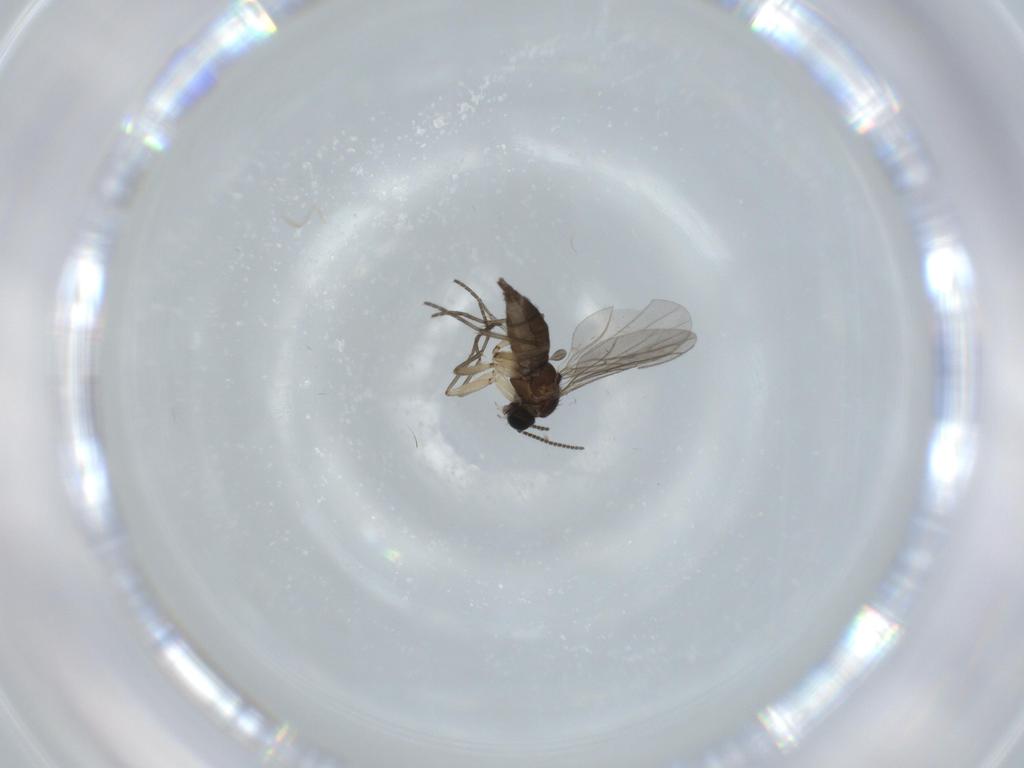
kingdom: Animalia
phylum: Arthropoda
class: Insecta
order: Diptera
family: Sciaridae
